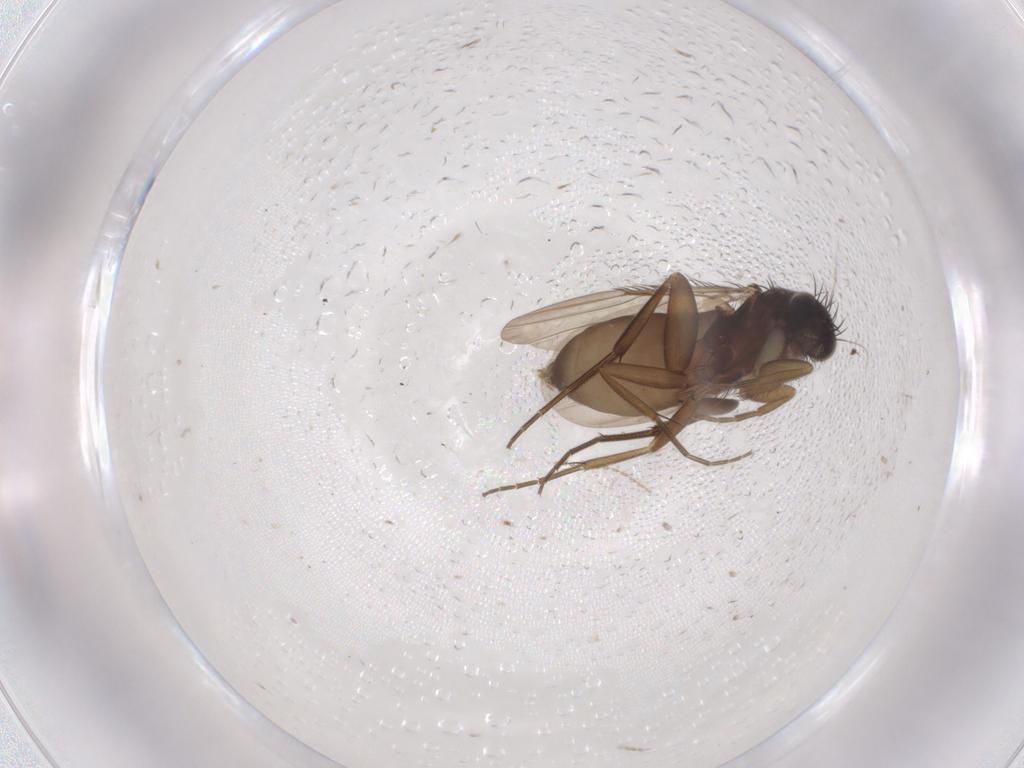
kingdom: Animalia
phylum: Arthropoda
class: Insecta
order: Diptera
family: Phoridae
